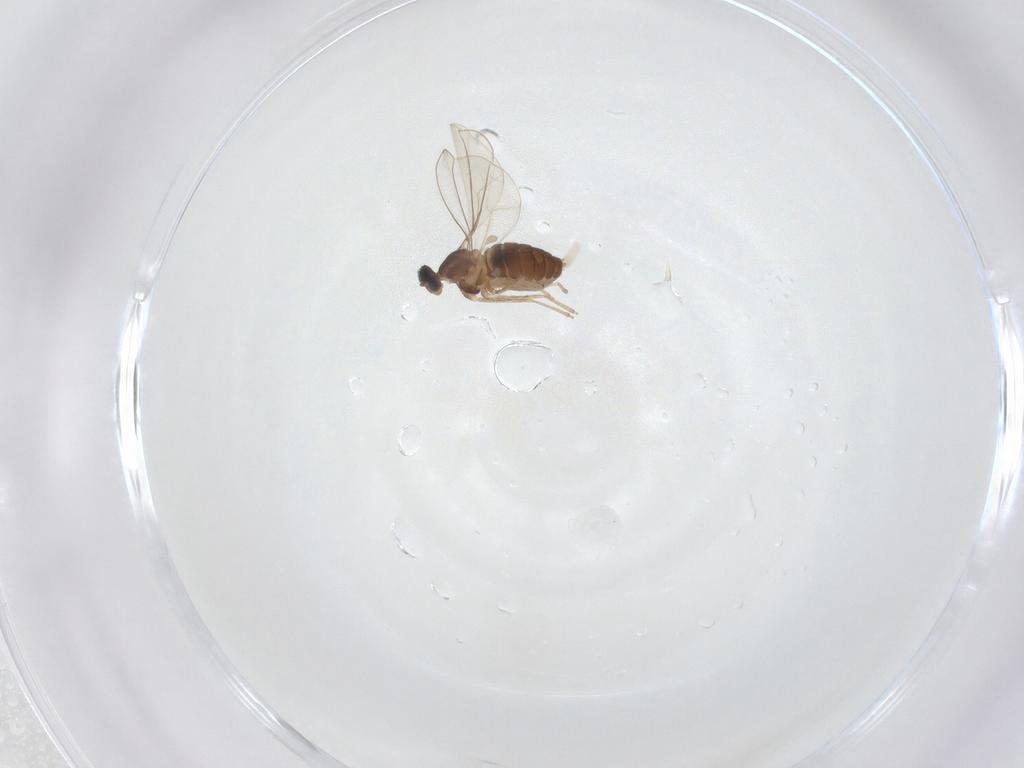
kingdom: Animalia
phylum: Arthropoda
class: Insecta
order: Diptera
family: Cecidomyiidae
